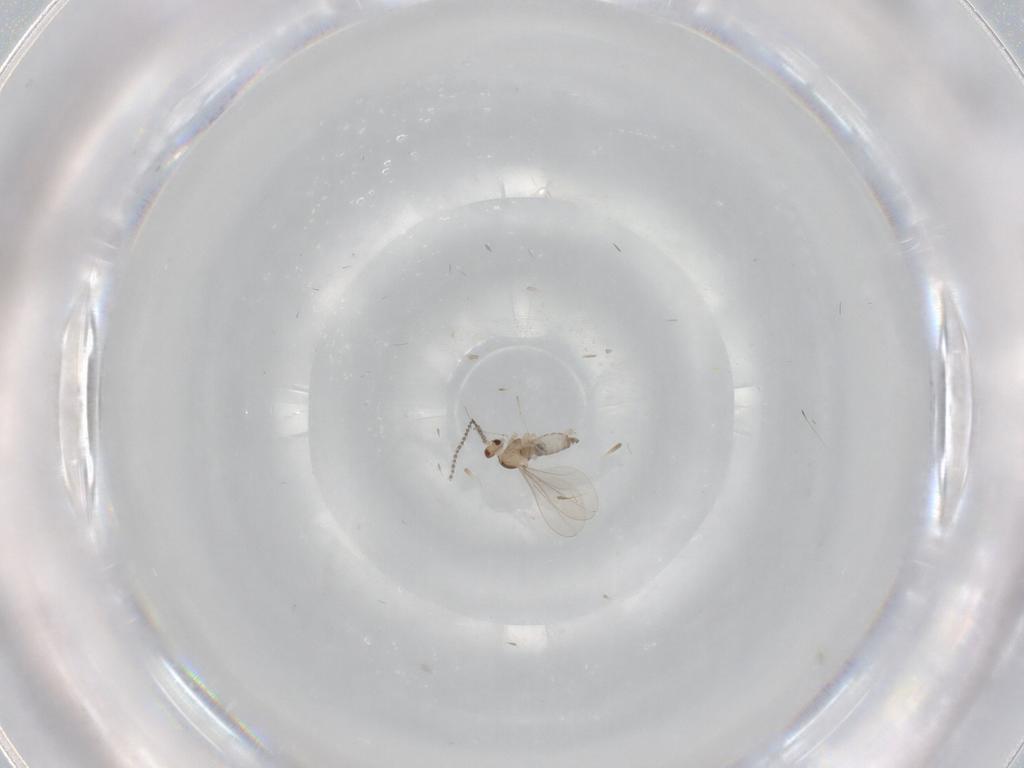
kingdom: Animalia
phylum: Arthropoda
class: Insecta
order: Diptera
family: Cecidomyiidae
